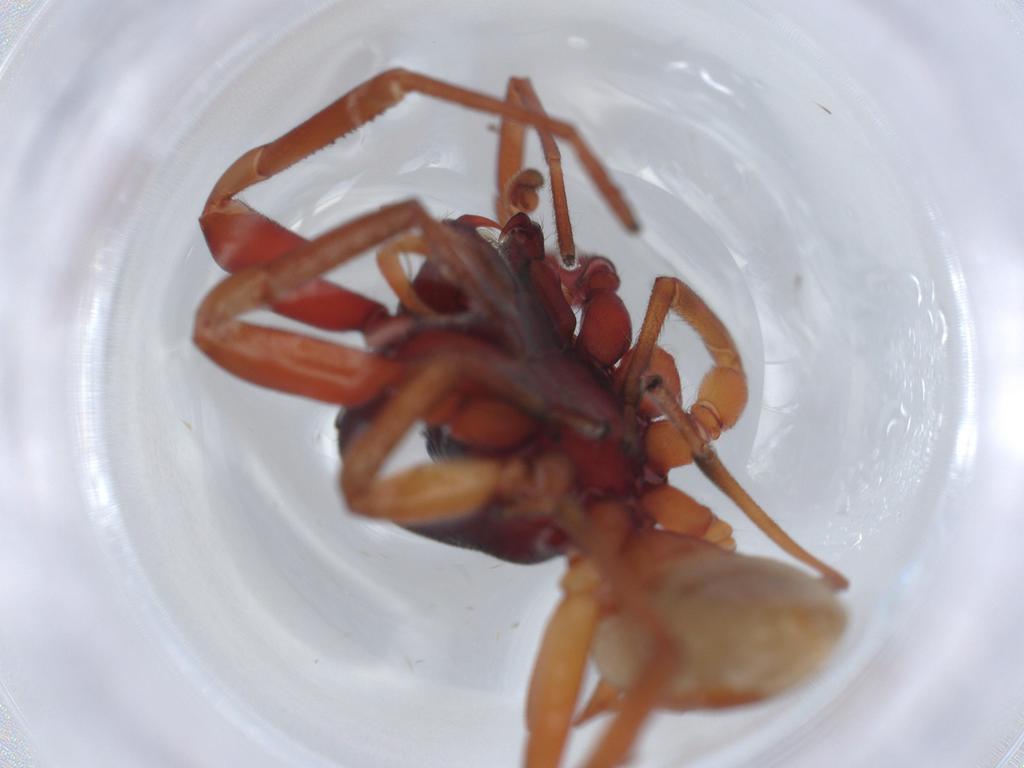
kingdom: Animalia
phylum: Arthropoda
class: Arachnida
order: Araneae
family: Trachelidae
